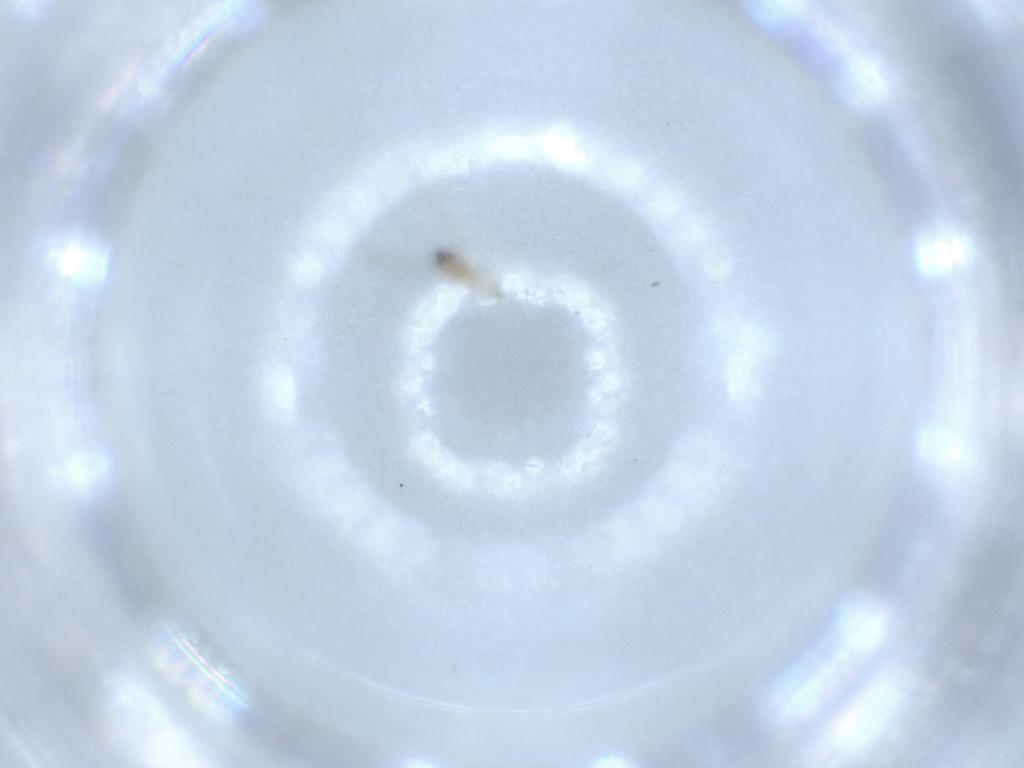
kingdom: Animalia
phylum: Arthropoda
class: Insecta
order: Diptera
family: Cecidomyiidae
